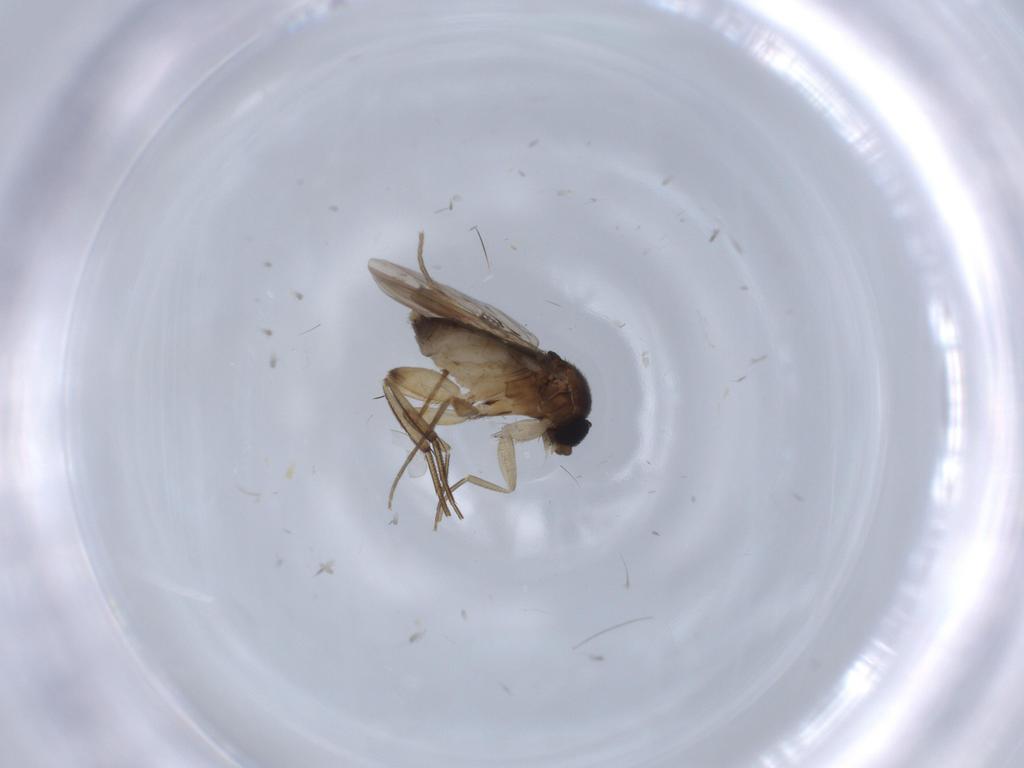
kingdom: Animalia
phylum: Arthropoda
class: Insecta
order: Diptera
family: Phoridae
